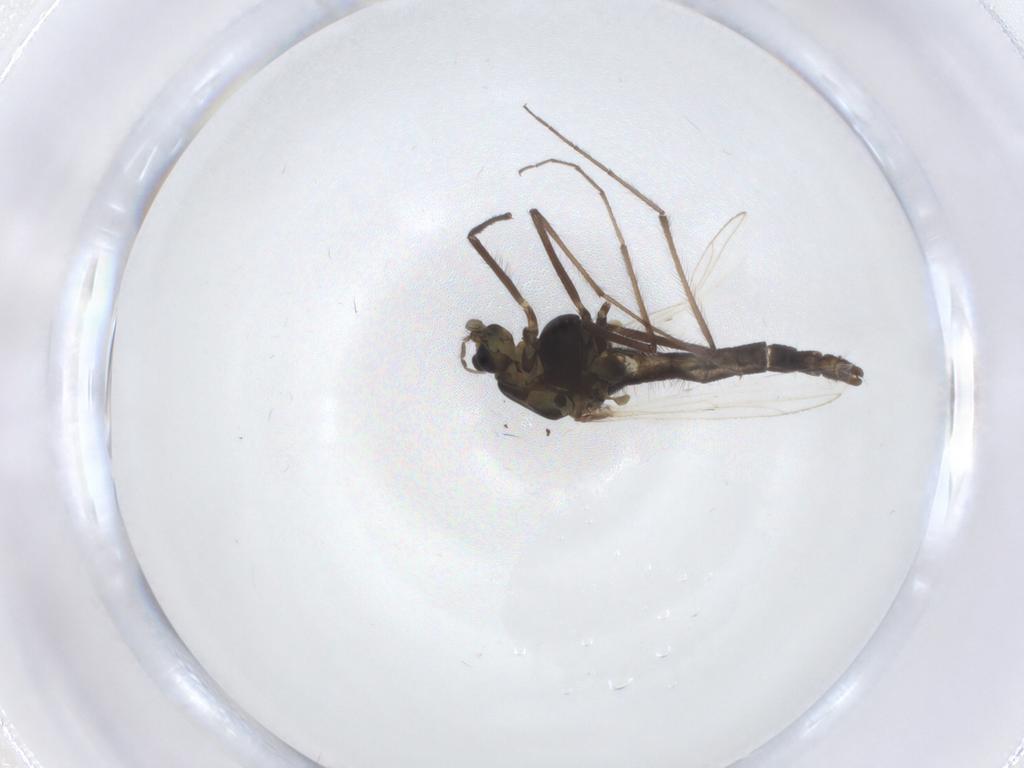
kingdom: Animalia
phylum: Arthropoda
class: Insecta
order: Diptera
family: Chironomidae
